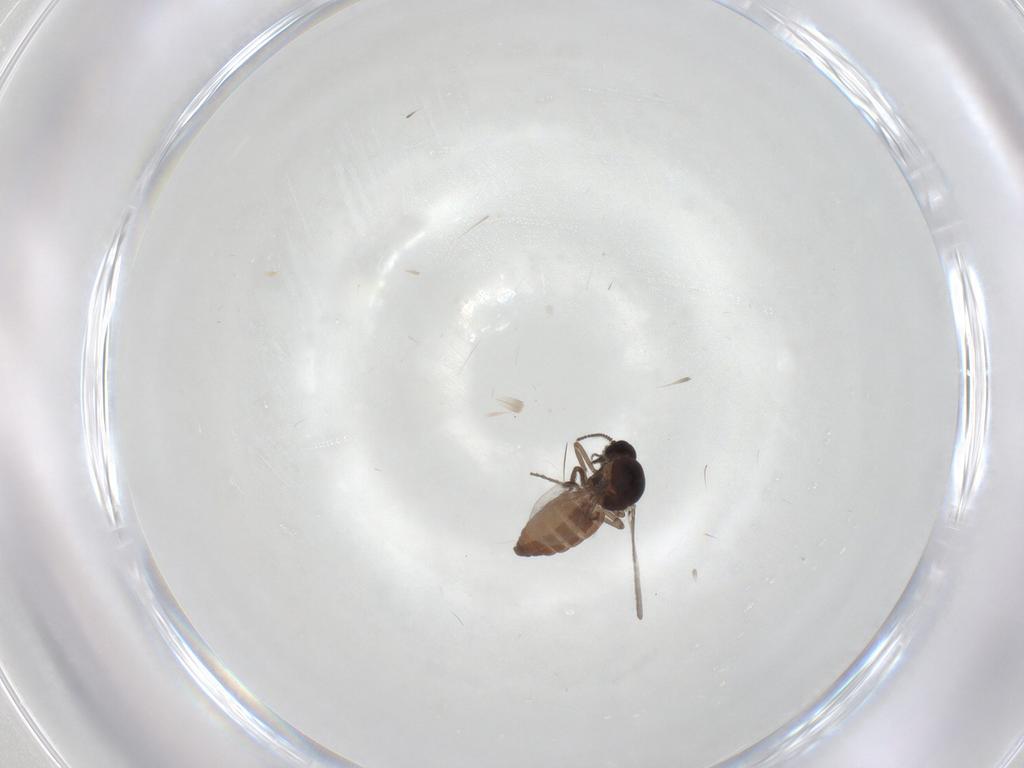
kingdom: Animalia
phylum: Arthropoda
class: Insecta
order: Diptera
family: Ceratopogonidae
